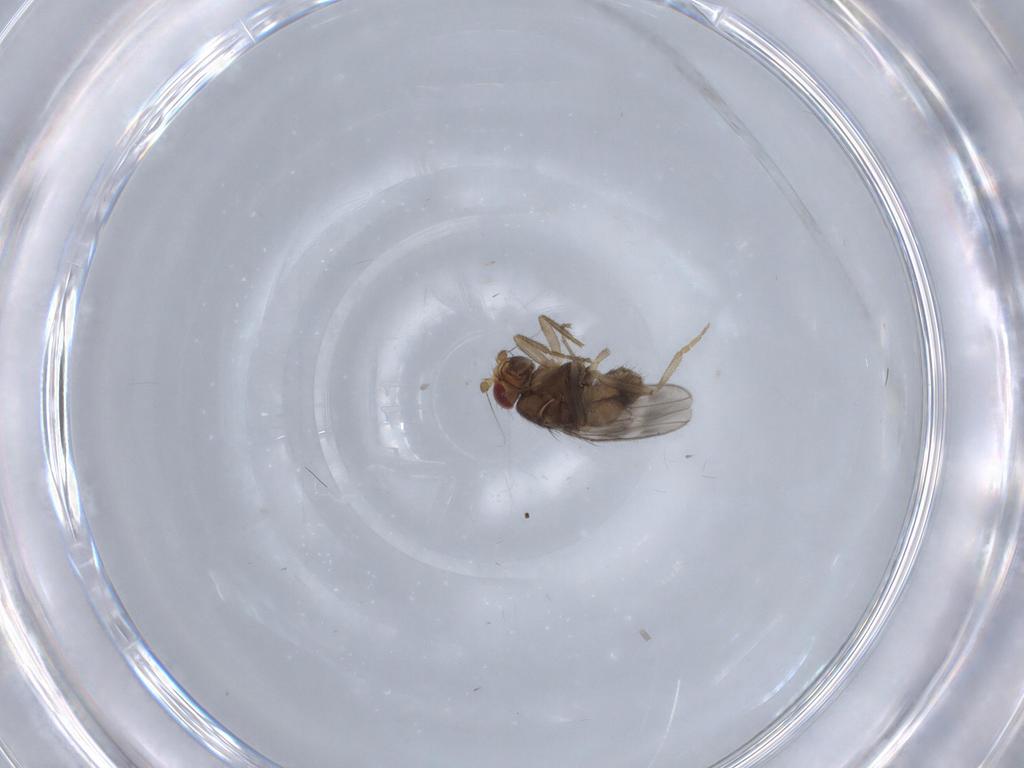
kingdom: Animalia
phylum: Arthropoda
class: Insecta
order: Diptera
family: Sphaeroceridae
